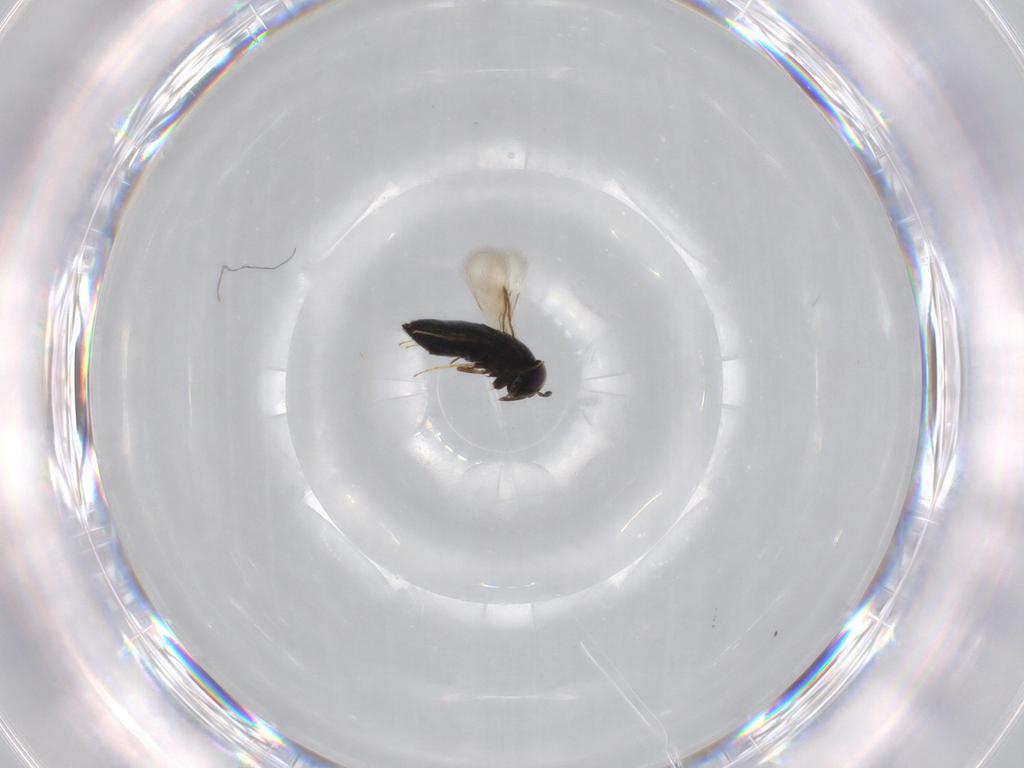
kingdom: Animalia
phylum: Arthropoda
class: Insecta
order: Hymenoptera
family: Signiphoridae
